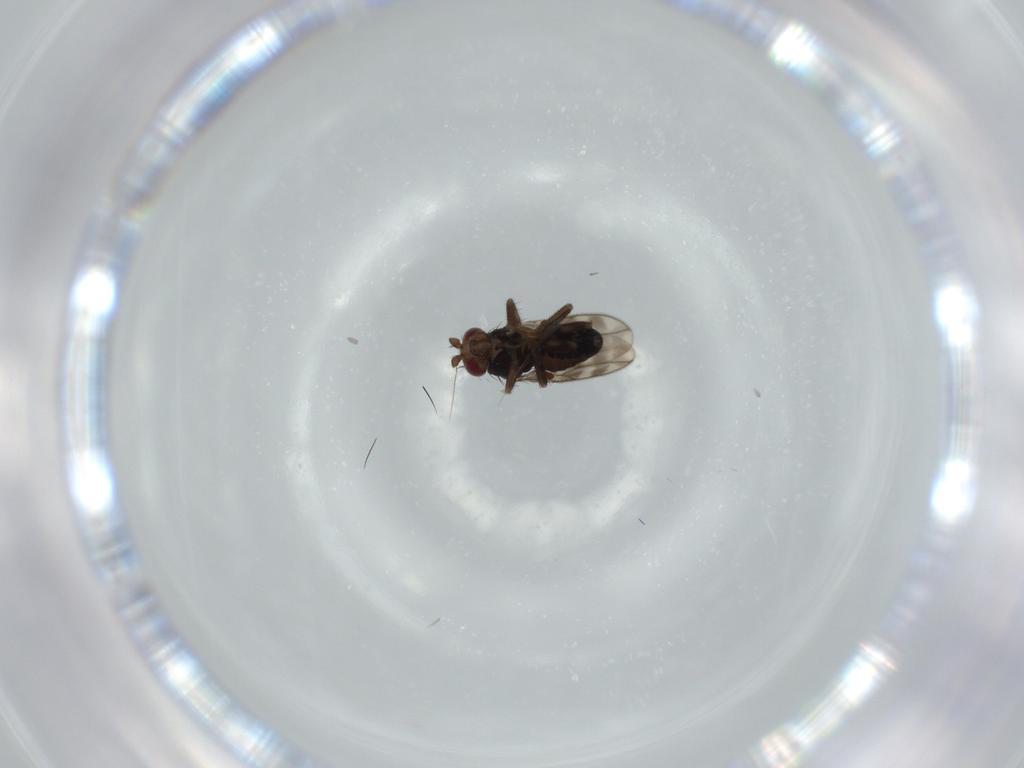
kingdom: Animalia
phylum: Arthropoda
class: Insecta
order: Diptera
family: Sphaeroceridae
